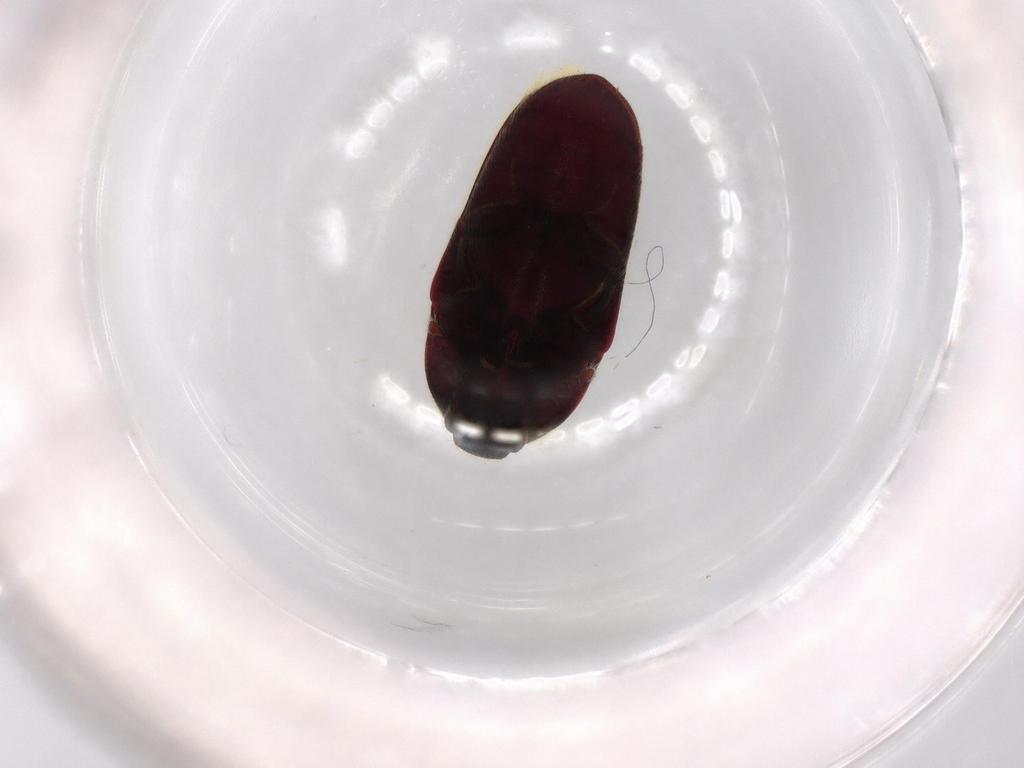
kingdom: Animalia
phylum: Arthropoda
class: Insecta
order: Coleoptera
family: Throscidae
